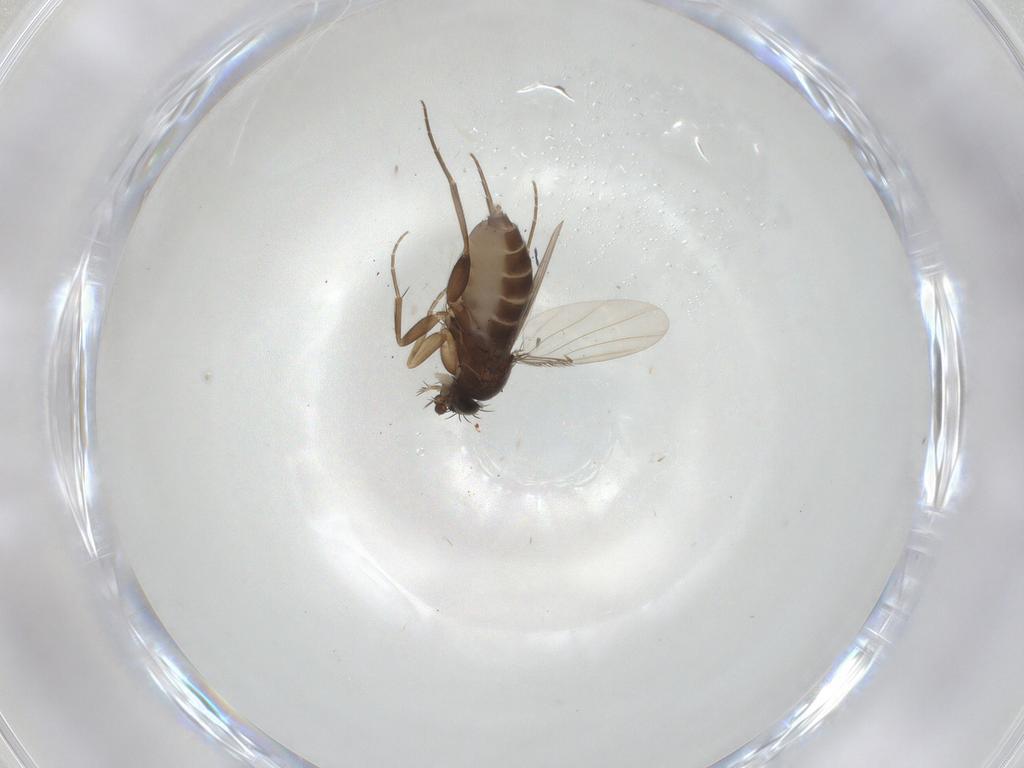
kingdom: Animalia
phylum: Arthropoda
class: Insecta
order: Diptera
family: Phoridae
